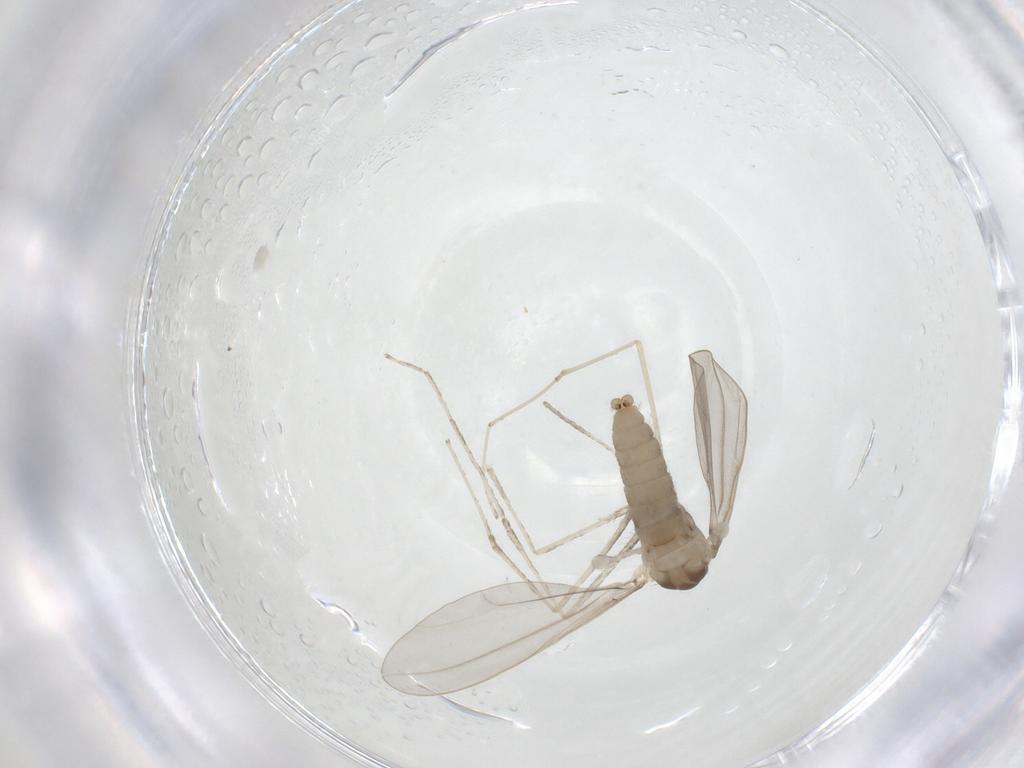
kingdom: Animalia
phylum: Arthropoda
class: Insecta
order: Diptera
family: Cecidomyiidae
